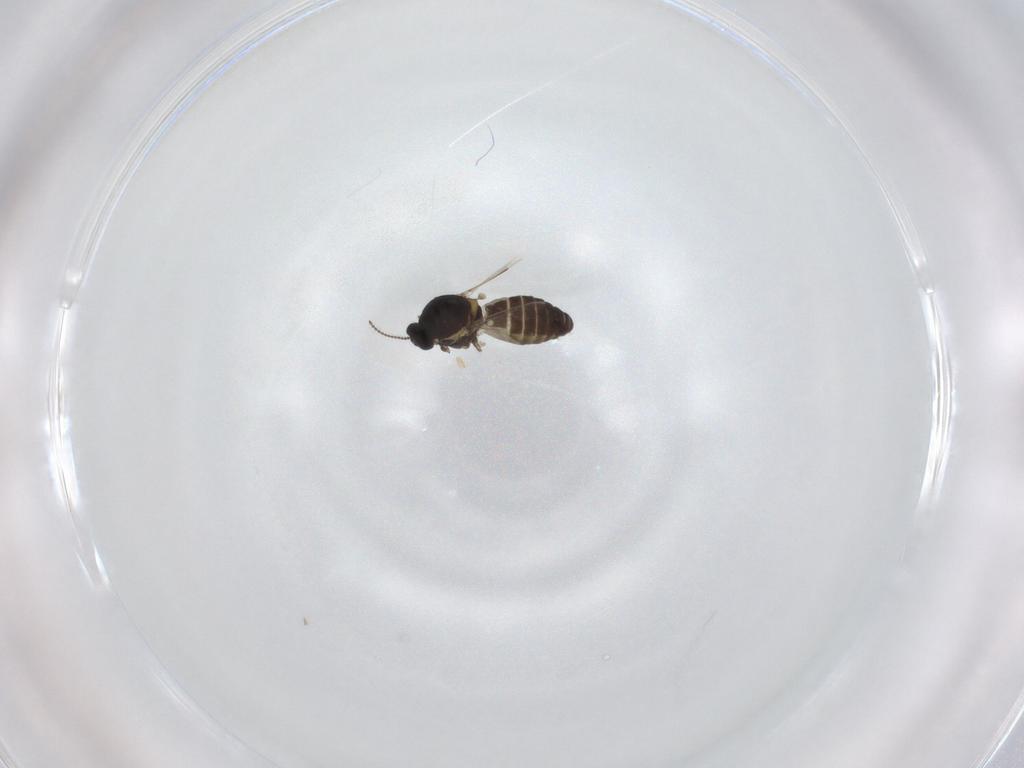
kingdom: Animalia
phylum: Arthropoda
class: Insecta
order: Diptera
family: Ceratopogonidae
